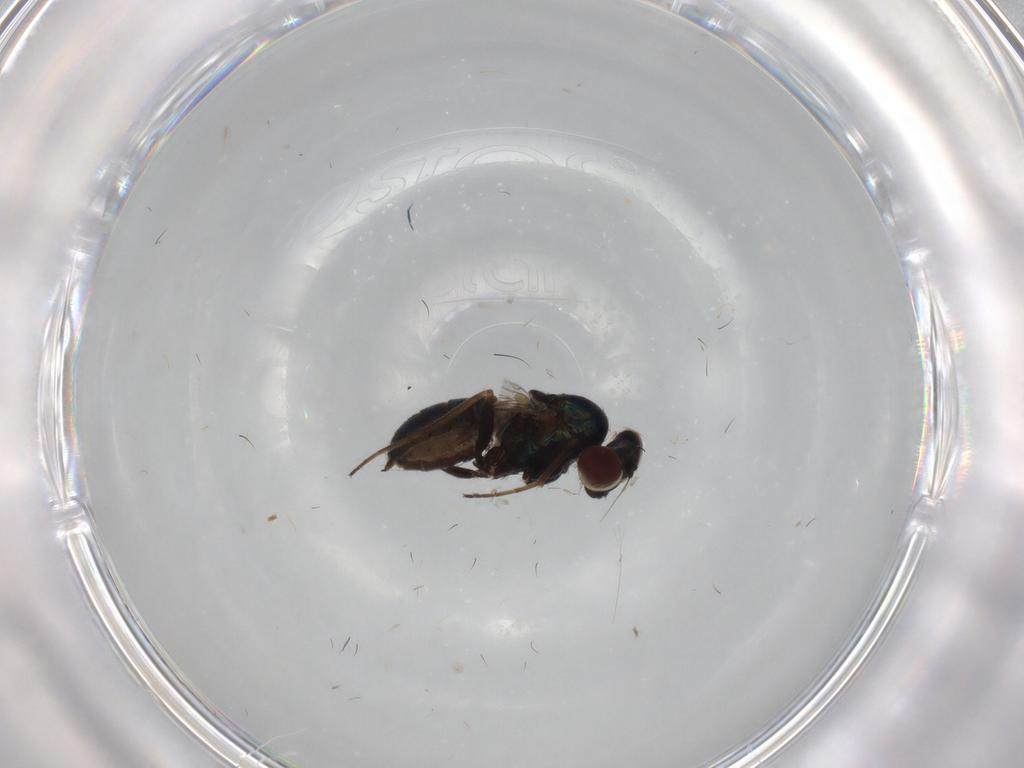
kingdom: Animalia
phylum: Arthropoda
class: Insecta
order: Diptera
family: Dolichopodidae
